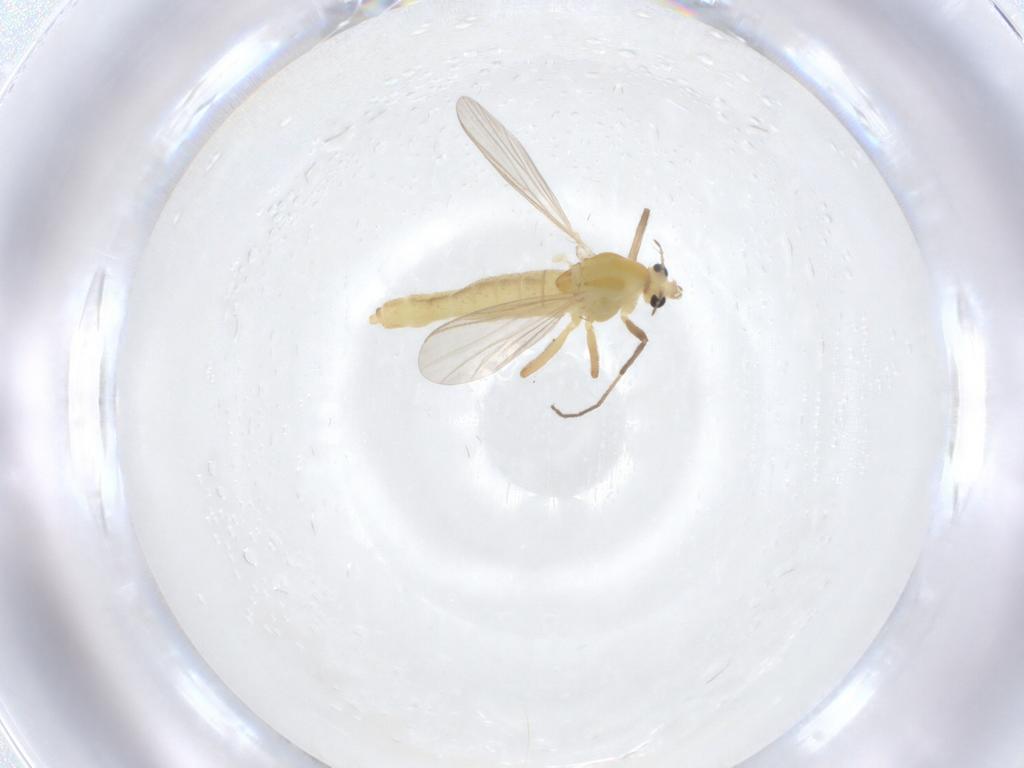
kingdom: Animalia
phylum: Arthropoda
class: Insecta
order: Diptera
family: Chironomidae
